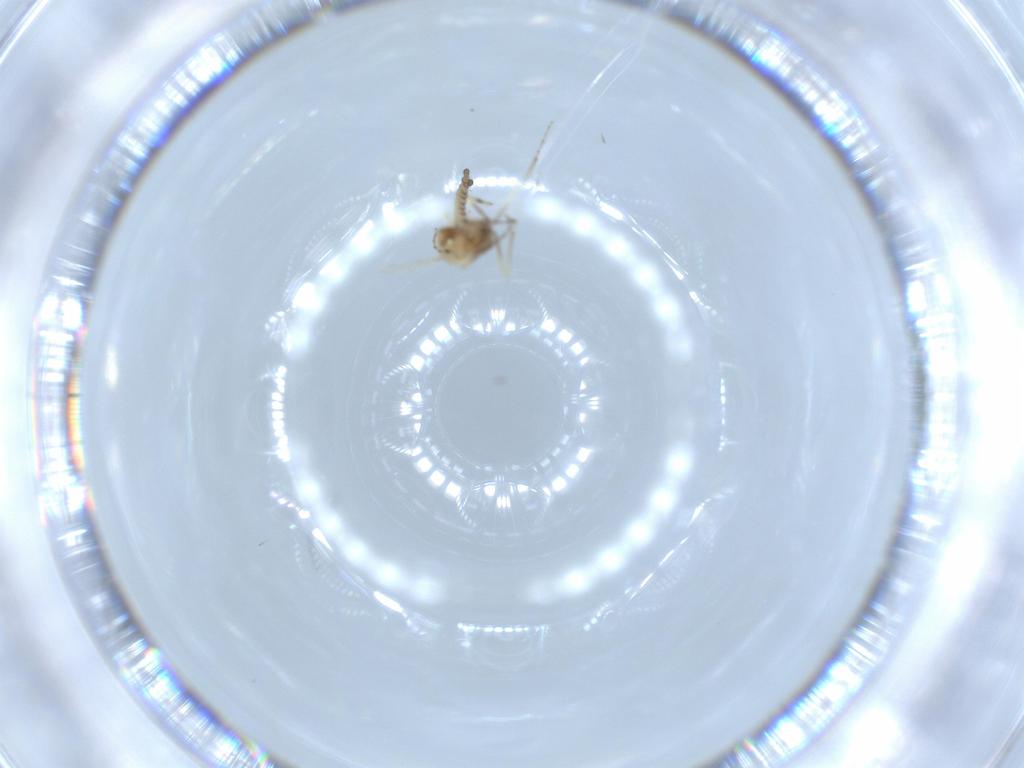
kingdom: Animalia
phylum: Arthropoda
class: Insecta
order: Diptera
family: Ceratopogonidae
